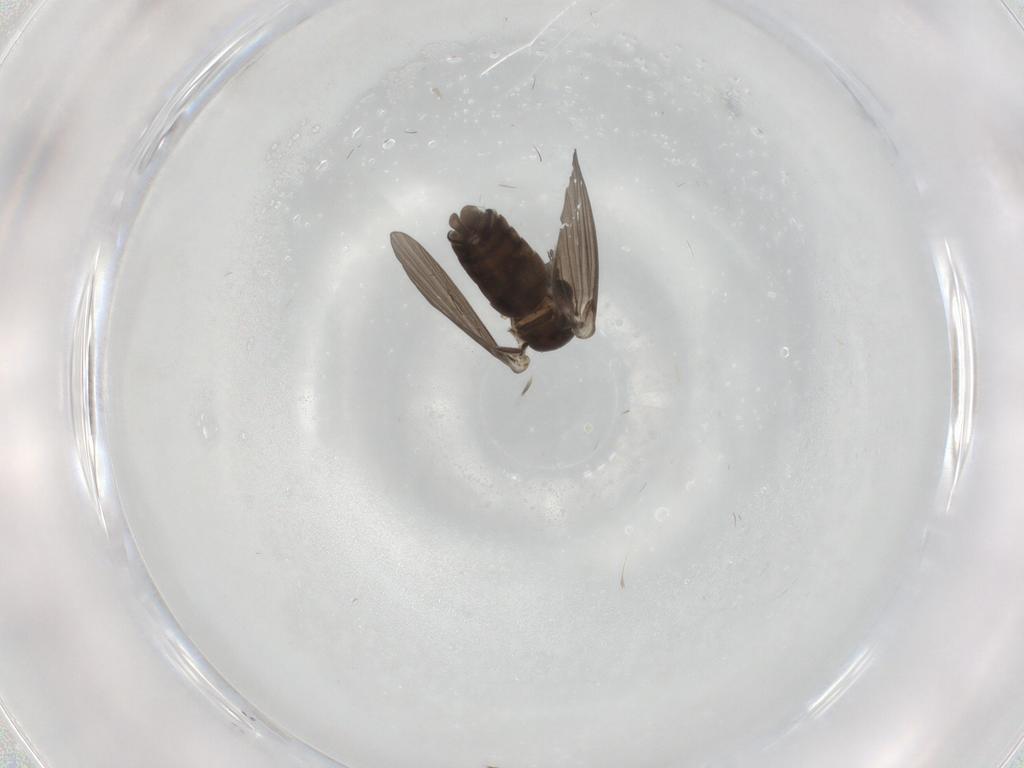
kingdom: Animalia
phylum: Arthropoda
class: Insecta
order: Diptera
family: Psychodidae
